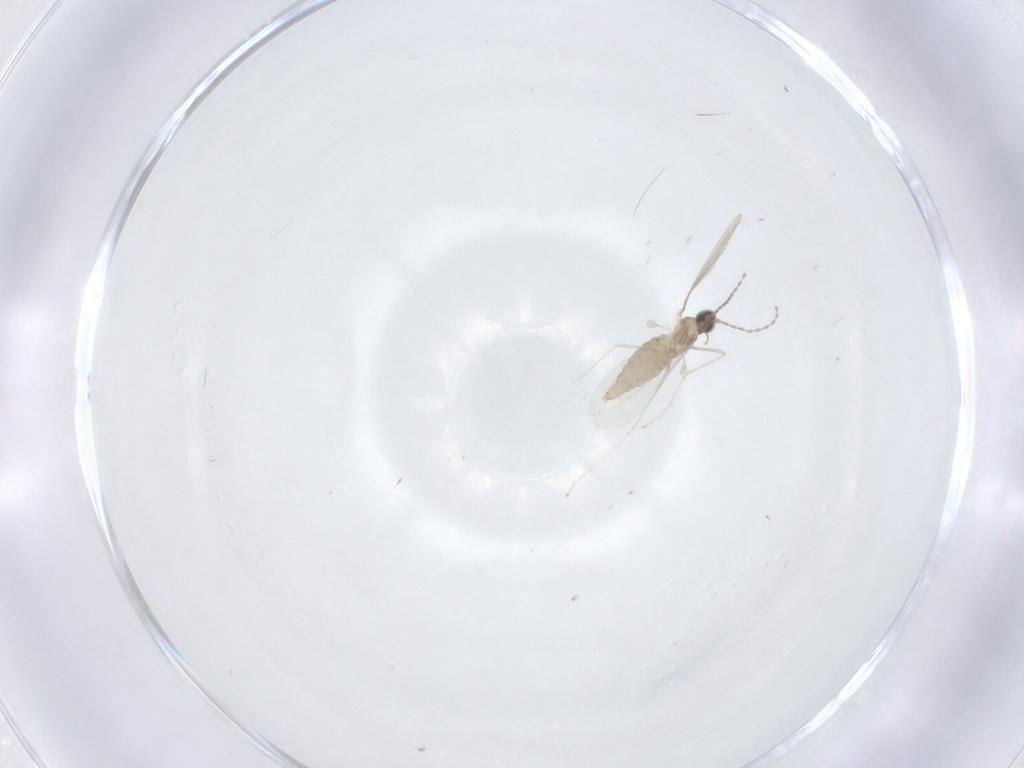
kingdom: Animalia
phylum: Arthropoda
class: Insecta
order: Diptera
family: Cecidomyiidae
